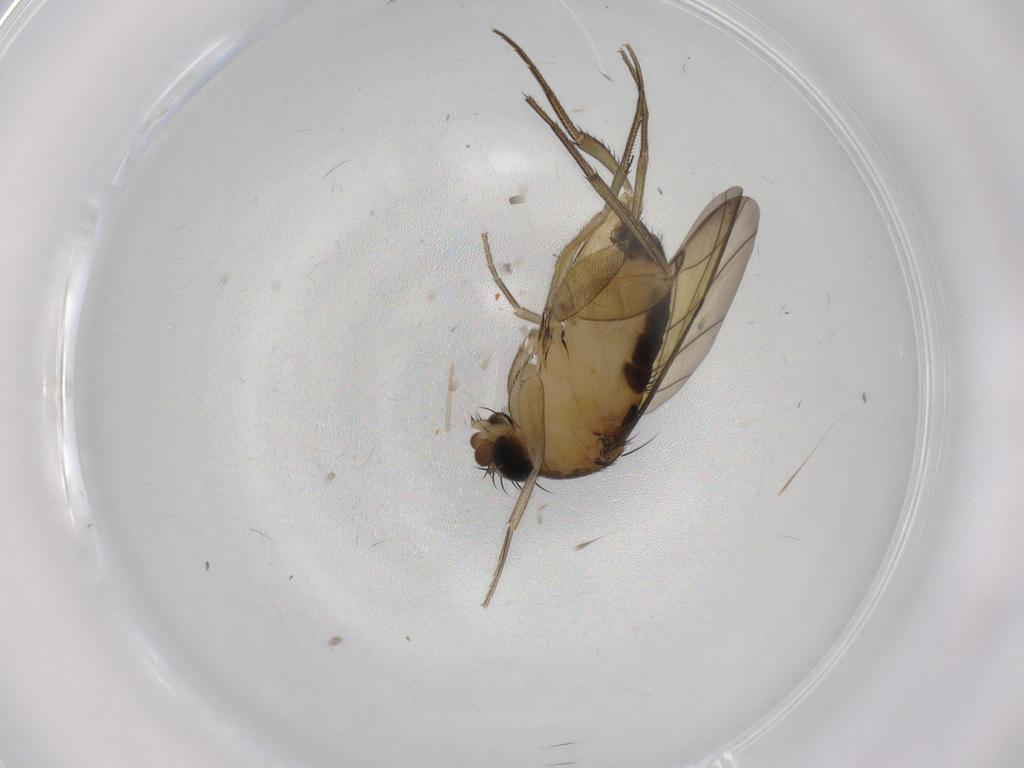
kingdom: Animalia
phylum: Arthropoda
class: Insecta
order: Diptera
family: Phoridae
